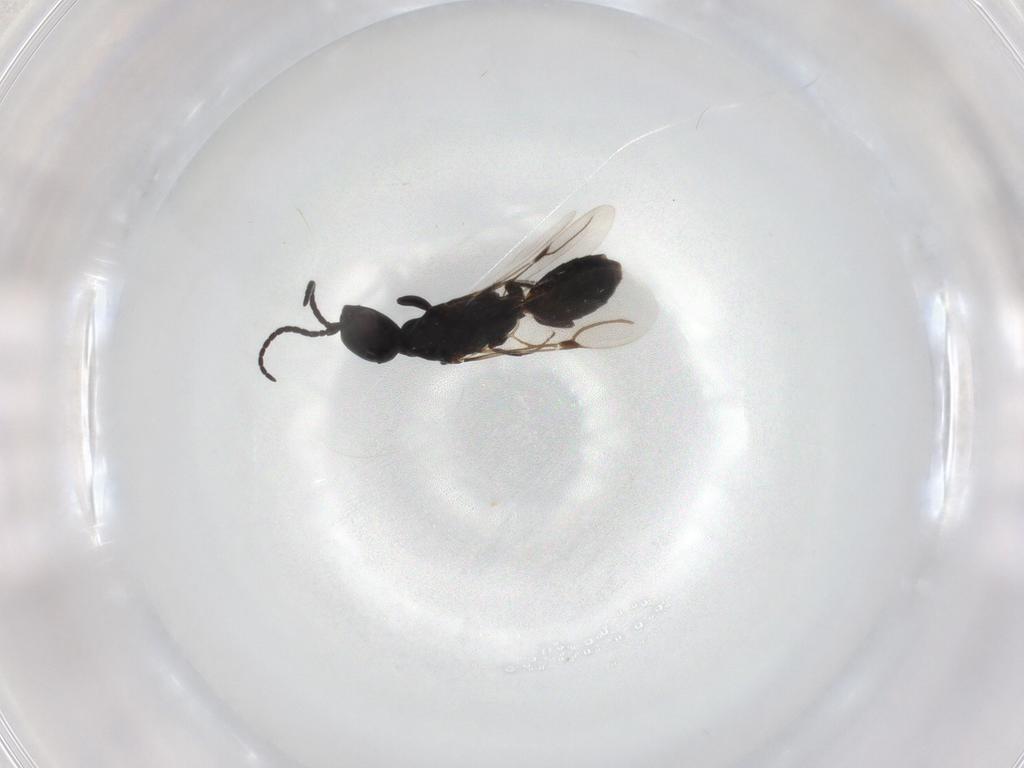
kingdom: Animalia
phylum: Arthropoda
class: Insecta
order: Hymenoptera
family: Bethylidae
